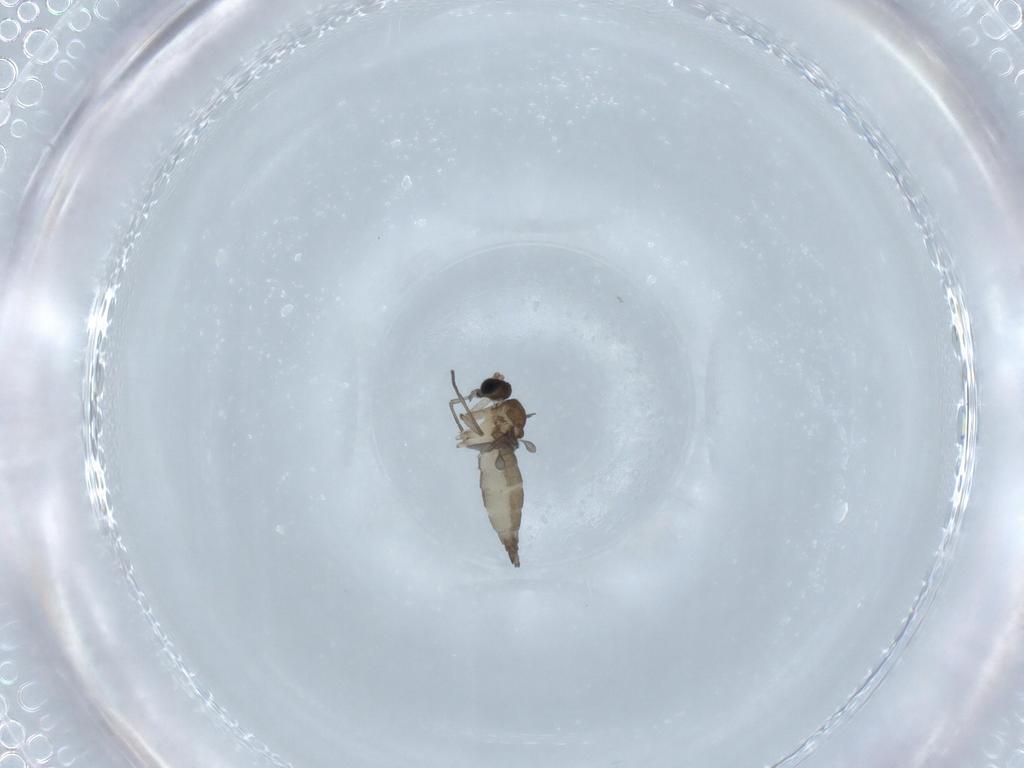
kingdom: Animalia
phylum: Arthropoda
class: Insecta
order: Diptera
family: Sciaridae
